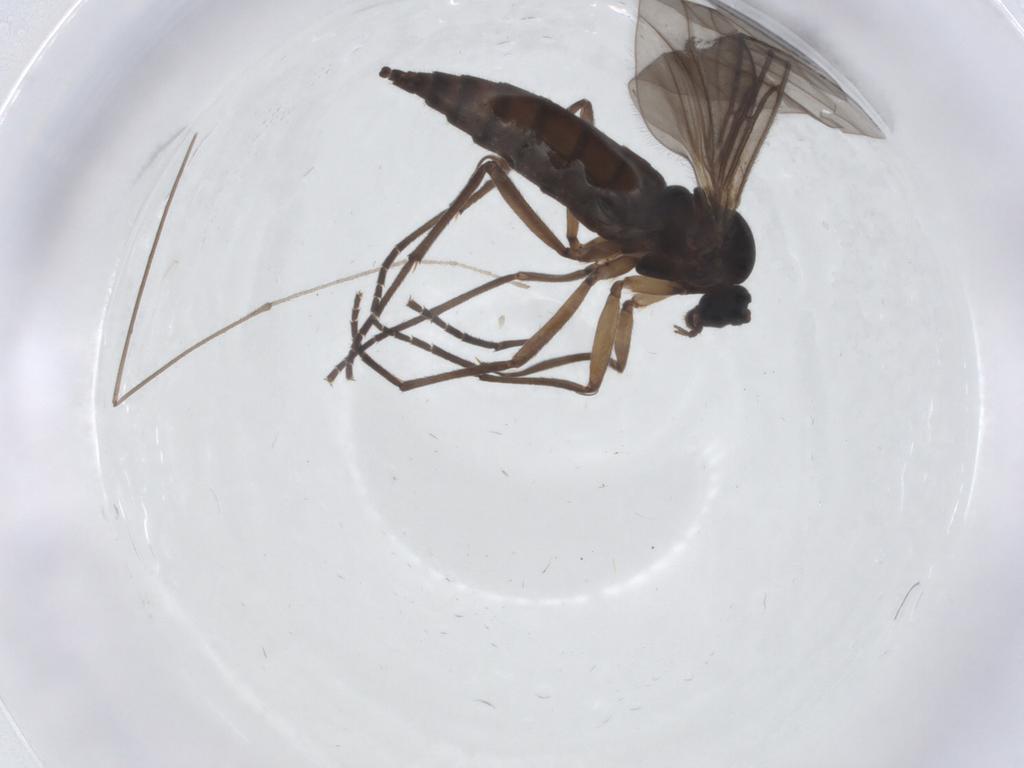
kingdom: Animalia
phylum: Arthropoda
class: Insecta
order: Diptera
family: Sciaridae
